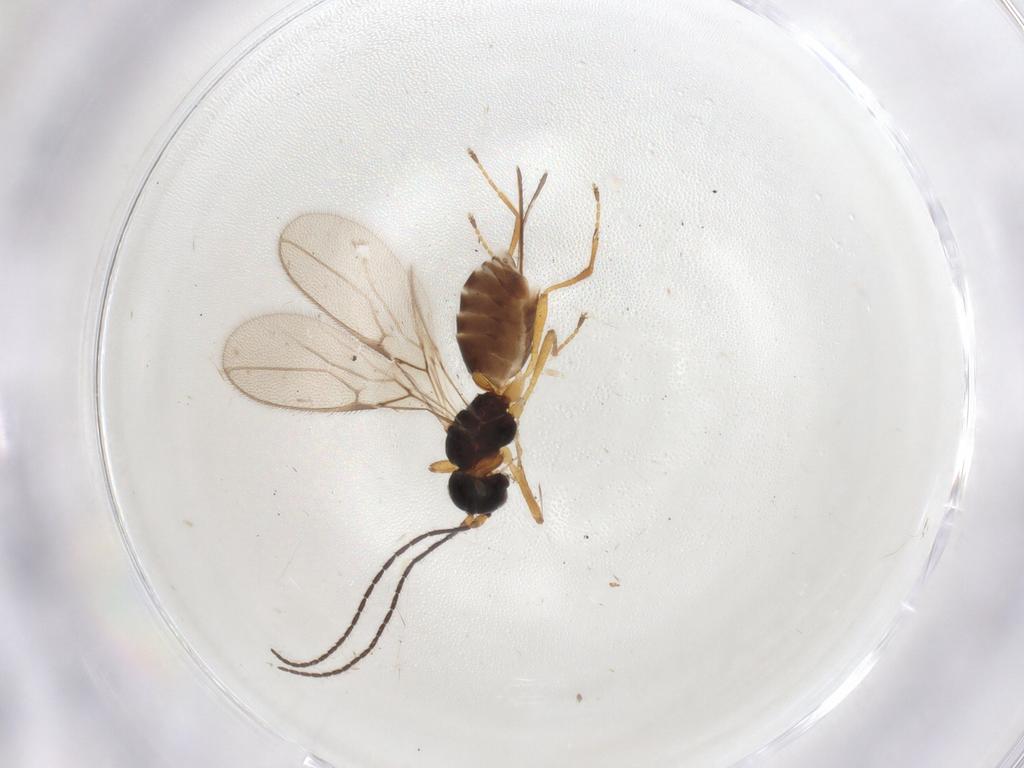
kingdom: Animalia
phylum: Arthropoda
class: Insecta
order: Hymenoptera
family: Braconidae
